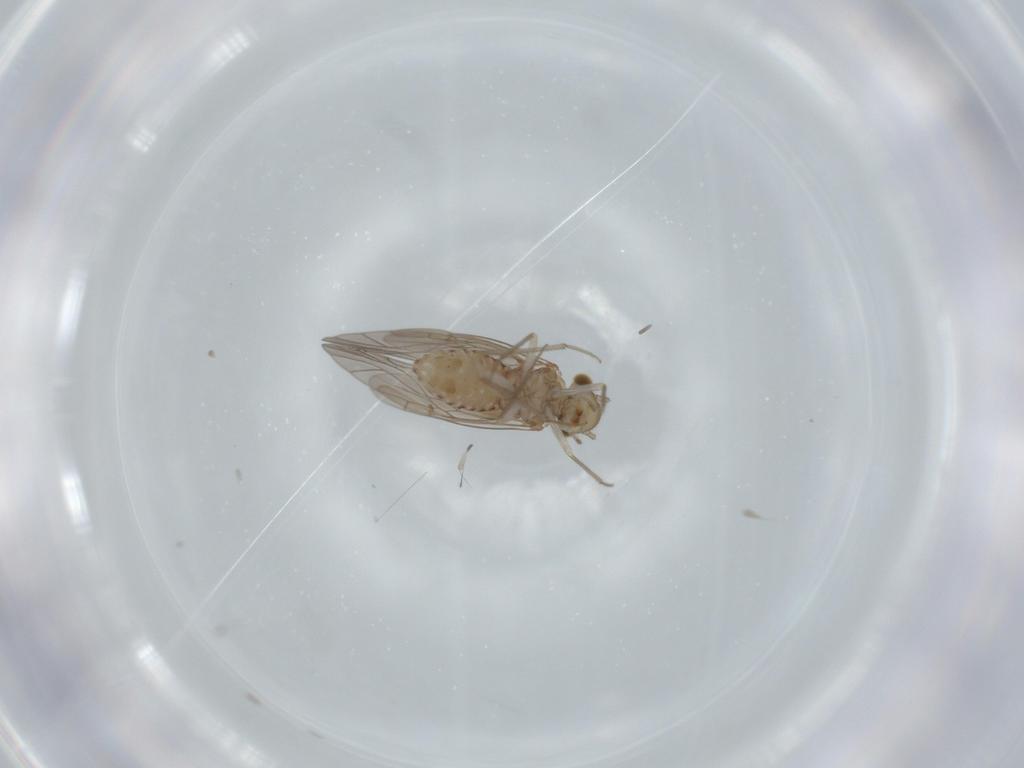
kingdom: Animalia
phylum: Arthropoda
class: Insecta
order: Psocodea
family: Lachesillidae
